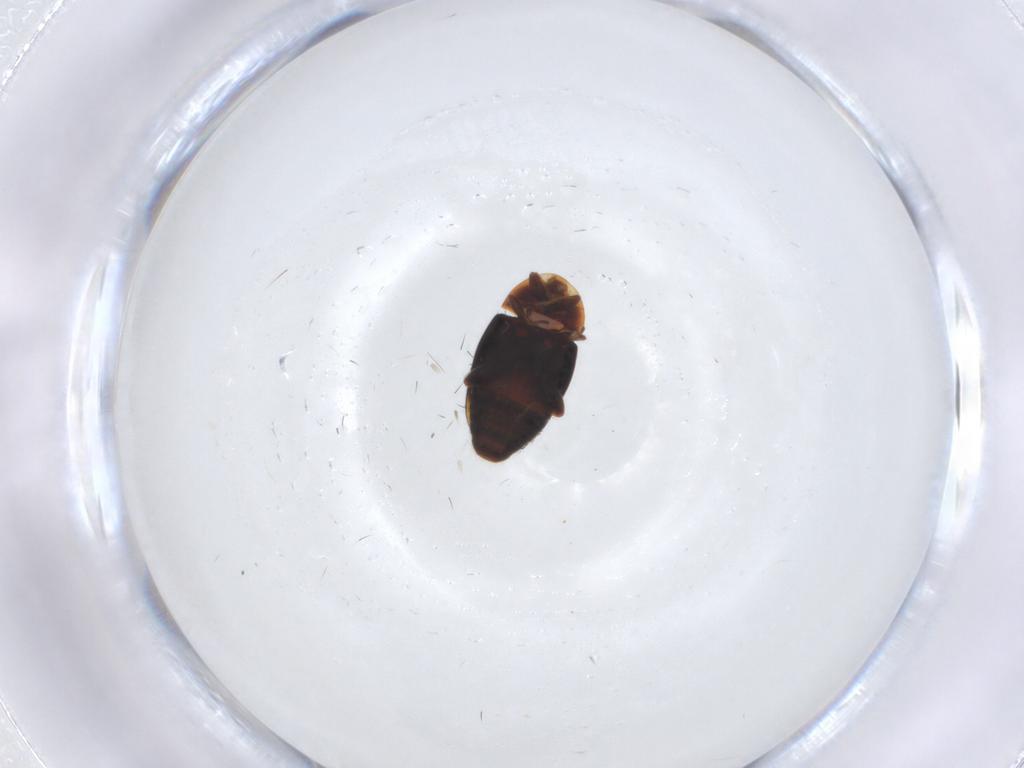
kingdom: Animalia
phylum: Arthropoda
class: Insecta
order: Coleoptera
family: Corylophidae
